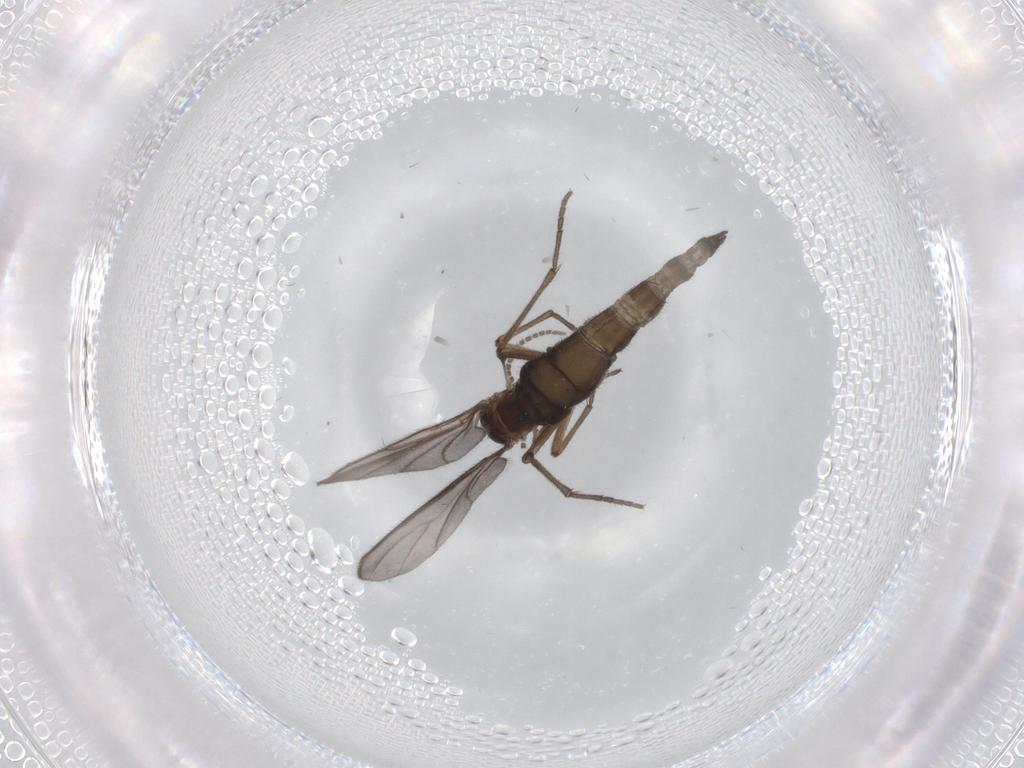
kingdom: Animalia
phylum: Arthropoda
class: Insecta
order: Diptera
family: Sciaridae
